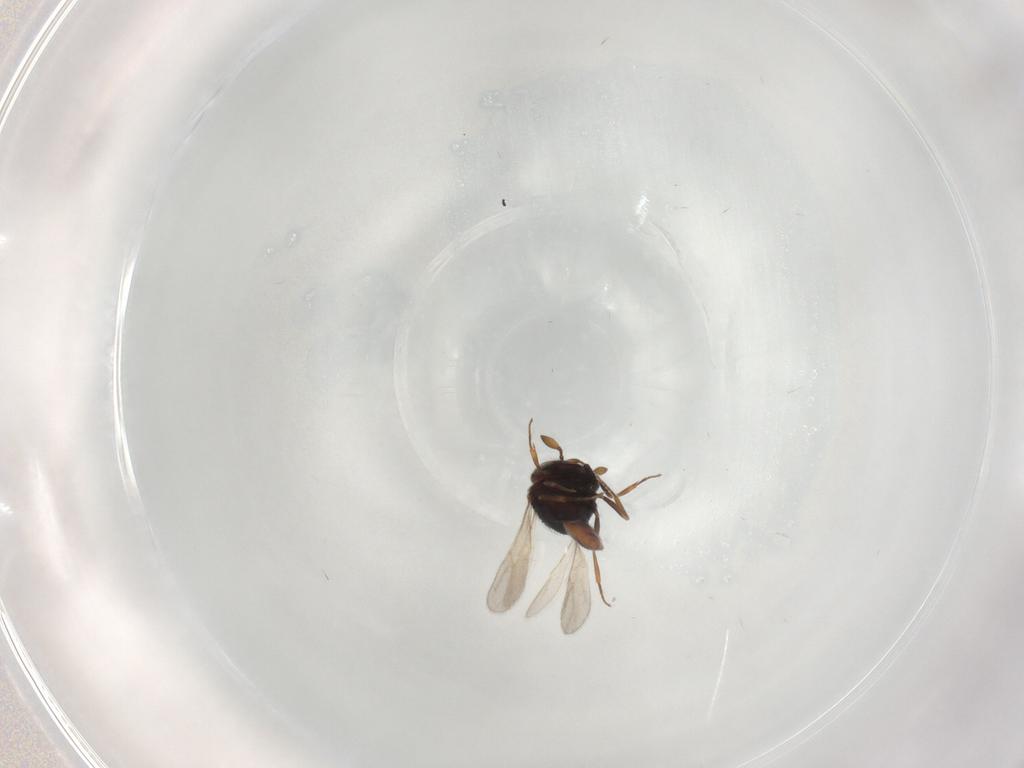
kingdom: Animalia
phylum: Arthropoda
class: Insecta
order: Hymenoptera
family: Scelionidae
